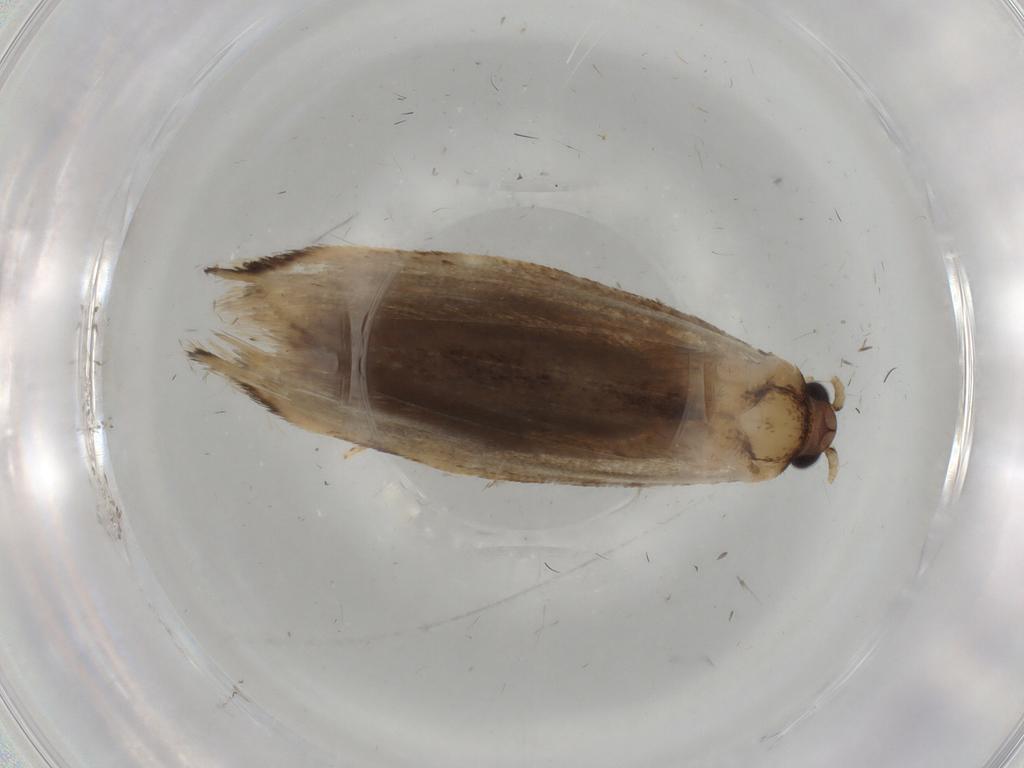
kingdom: Animalia
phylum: Arthropoda
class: Insecta
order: Lepidoptera
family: Tineidae
